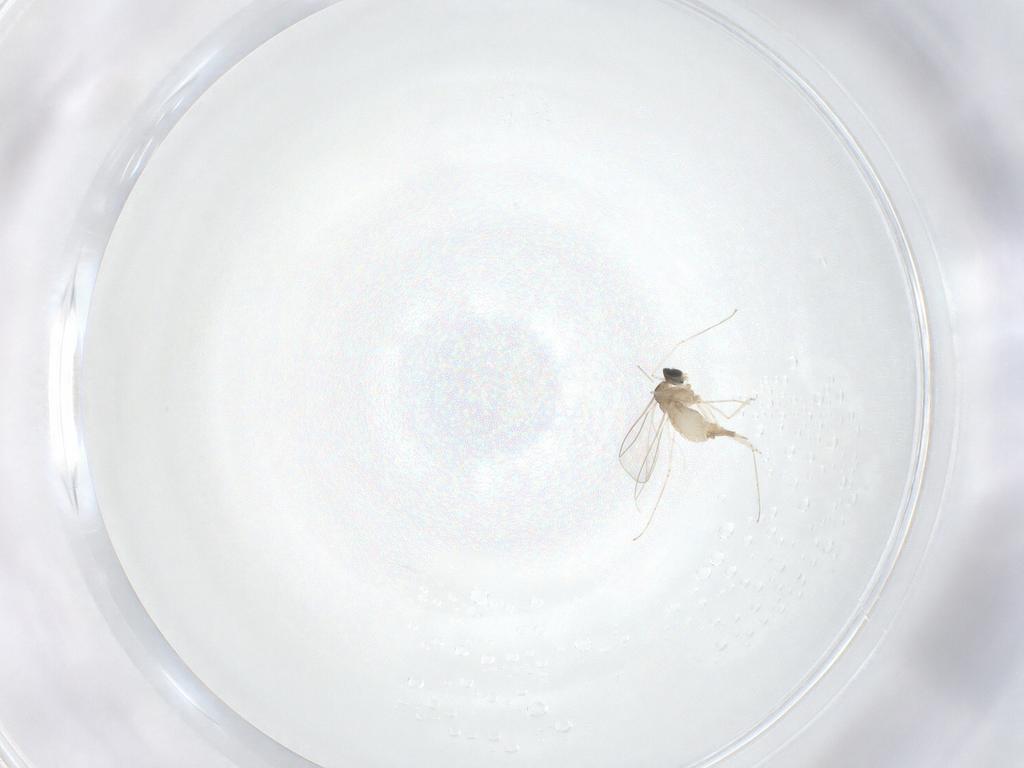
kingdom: Animalia
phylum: Arthropoda
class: Insecta
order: Diptera
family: Cecidomyiidae
